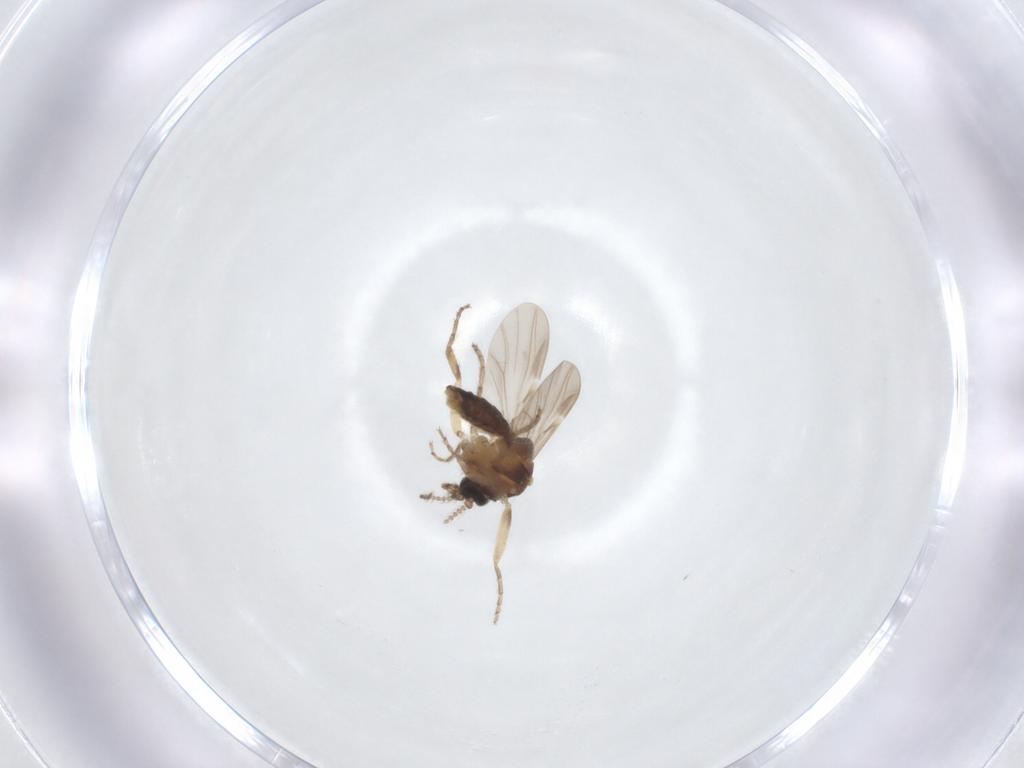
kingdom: Animalia
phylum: Arthropoda
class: Insecta
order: Diptera
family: Ceratopogonidae
